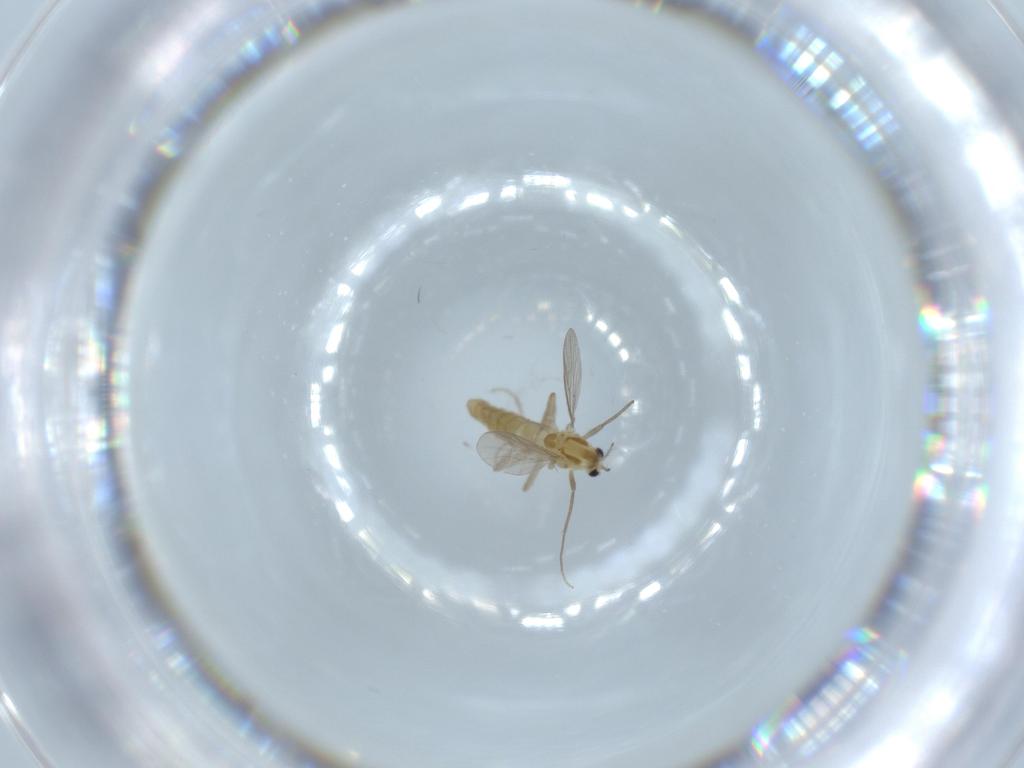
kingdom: Animalia
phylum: Arthropoda
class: Insecta
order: Diptera
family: Chironomidae
